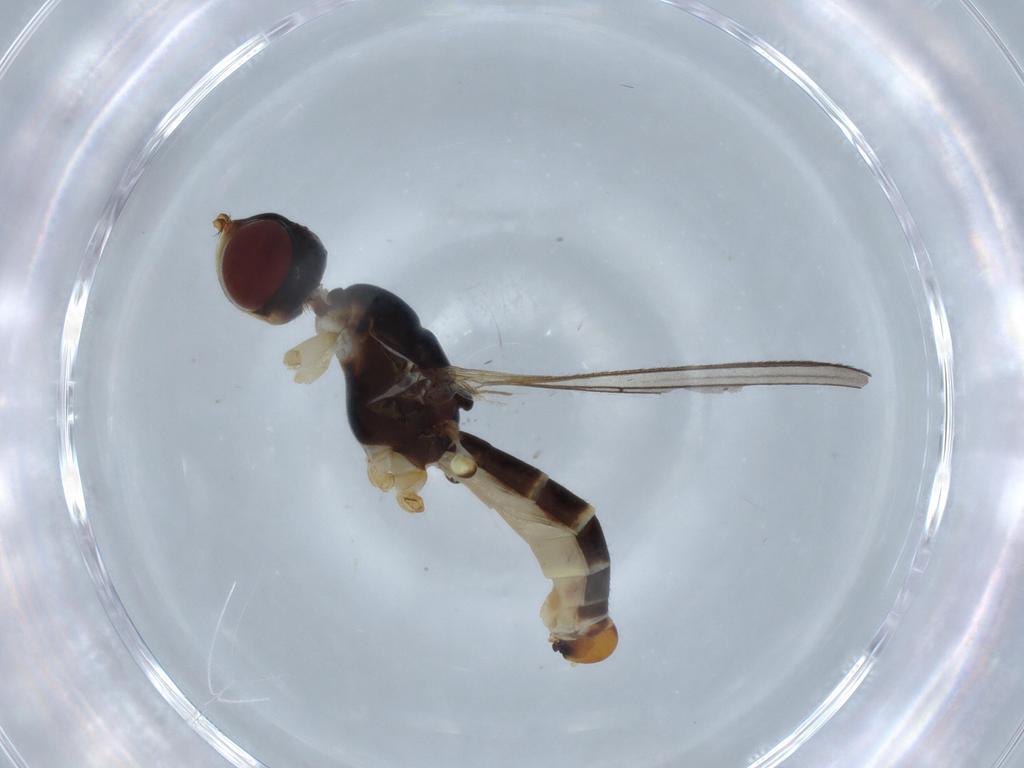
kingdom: Animalia
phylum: Arthropoda
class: Insecta
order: Diptera
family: Micropezidae
